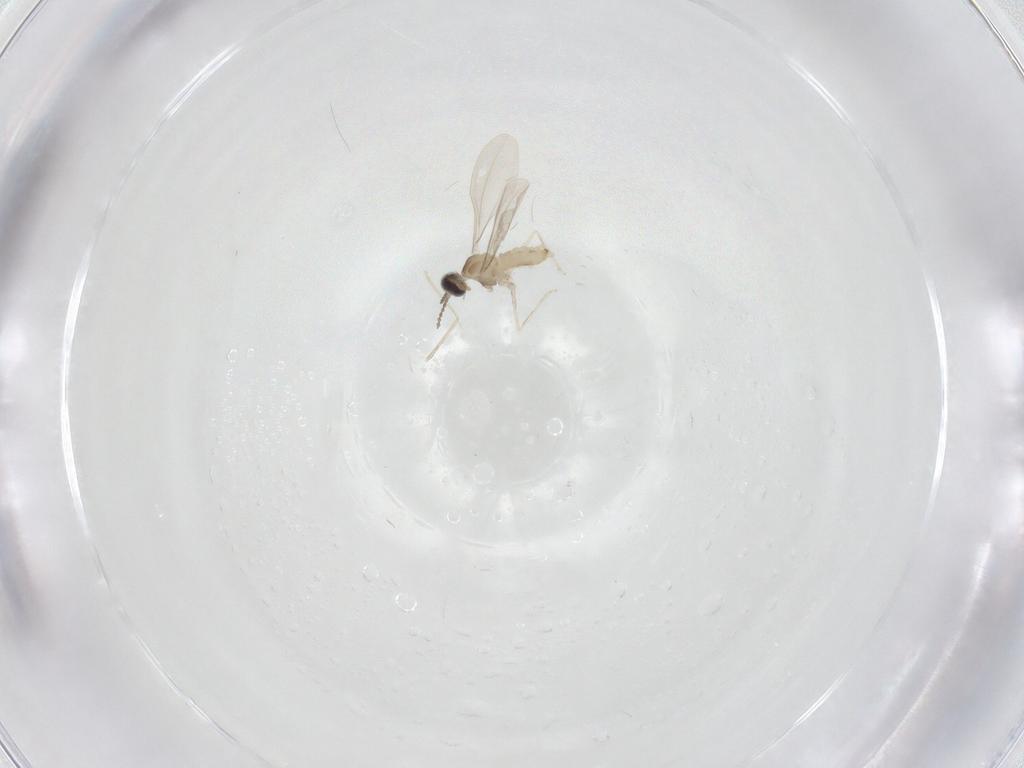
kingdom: Animalia
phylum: Arthropoda
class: Insecta
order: Diptera
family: Cecidomyiidae
